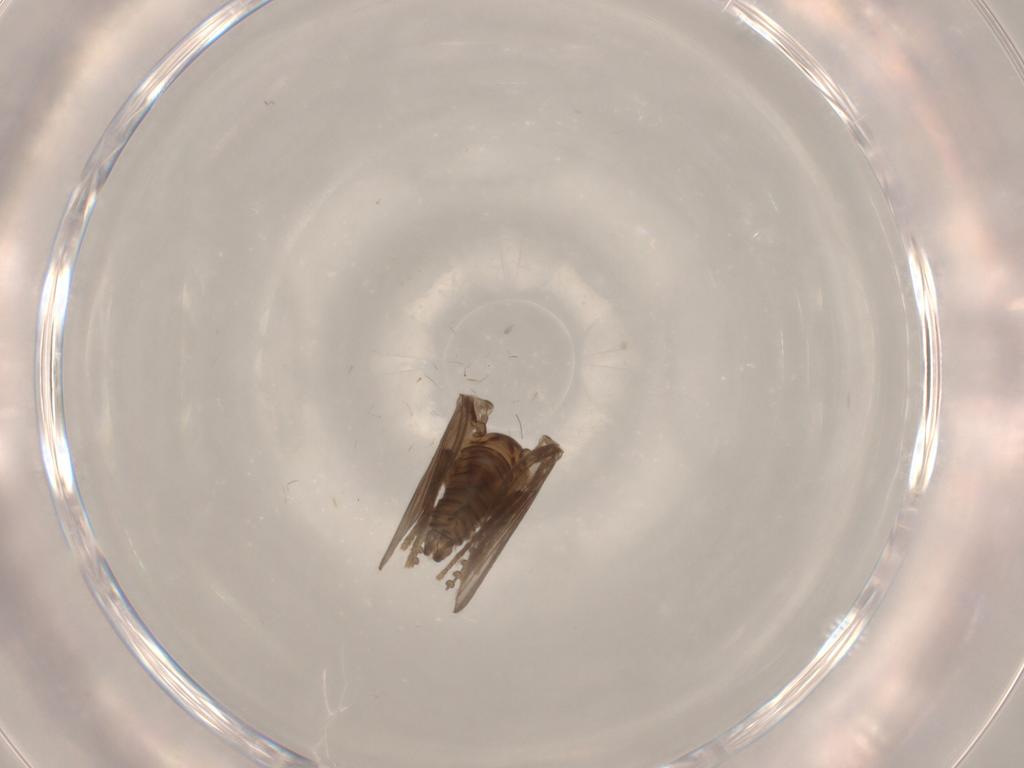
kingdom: Animalia
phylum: Arthropoda
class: Insecta
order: Diptera
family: Psychodidae
